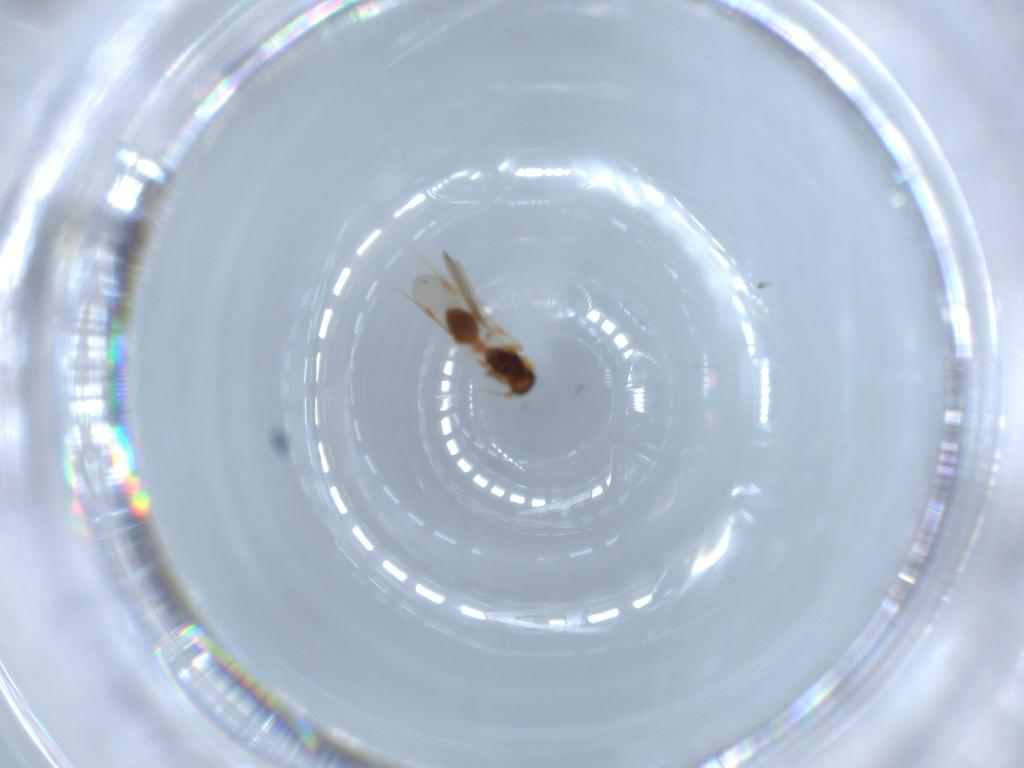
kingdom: Animalia
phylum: Arthropoda
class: Insecta
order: Hymenoptera
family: Platygastridae
